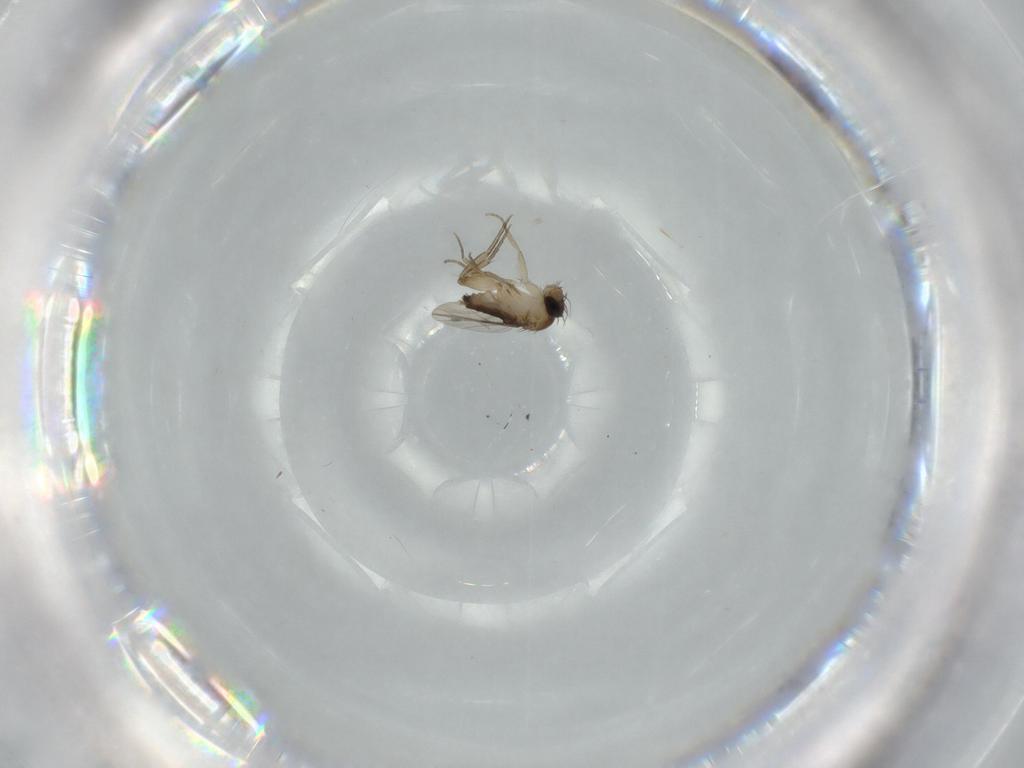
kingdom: Animalia
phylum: Arthropoda
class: Insecta
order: Diptera
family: Phoridae
